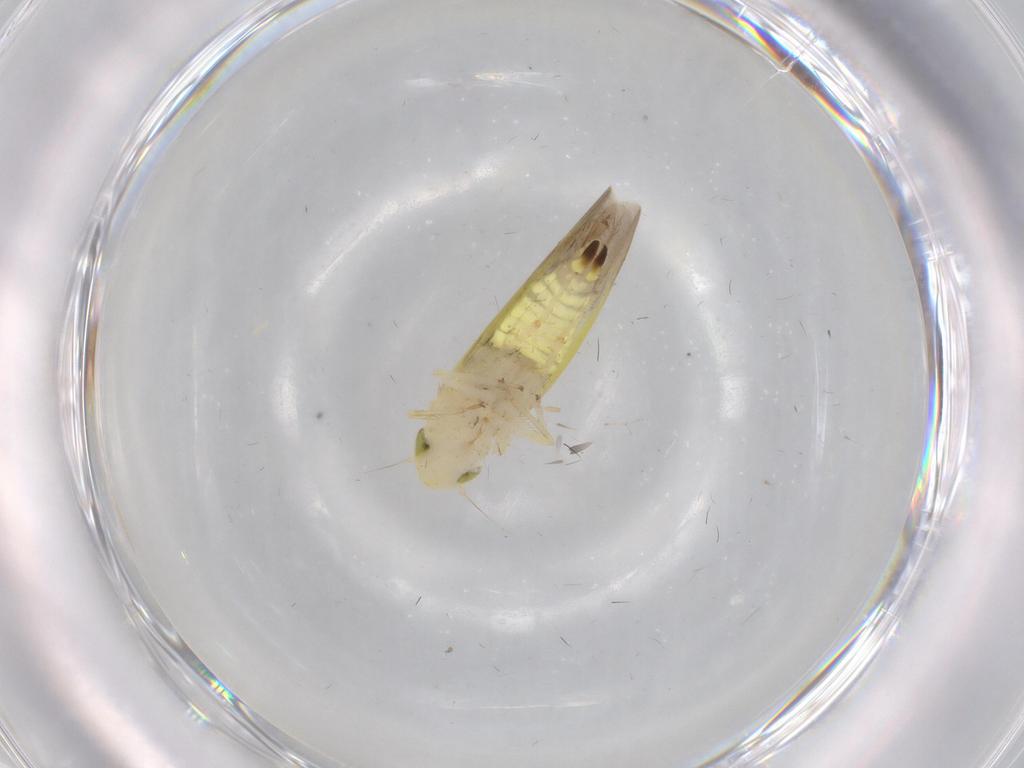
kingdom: Animalia
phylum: Arthropoda
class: Insecta
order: Hemiptera
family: Cicadellidae
